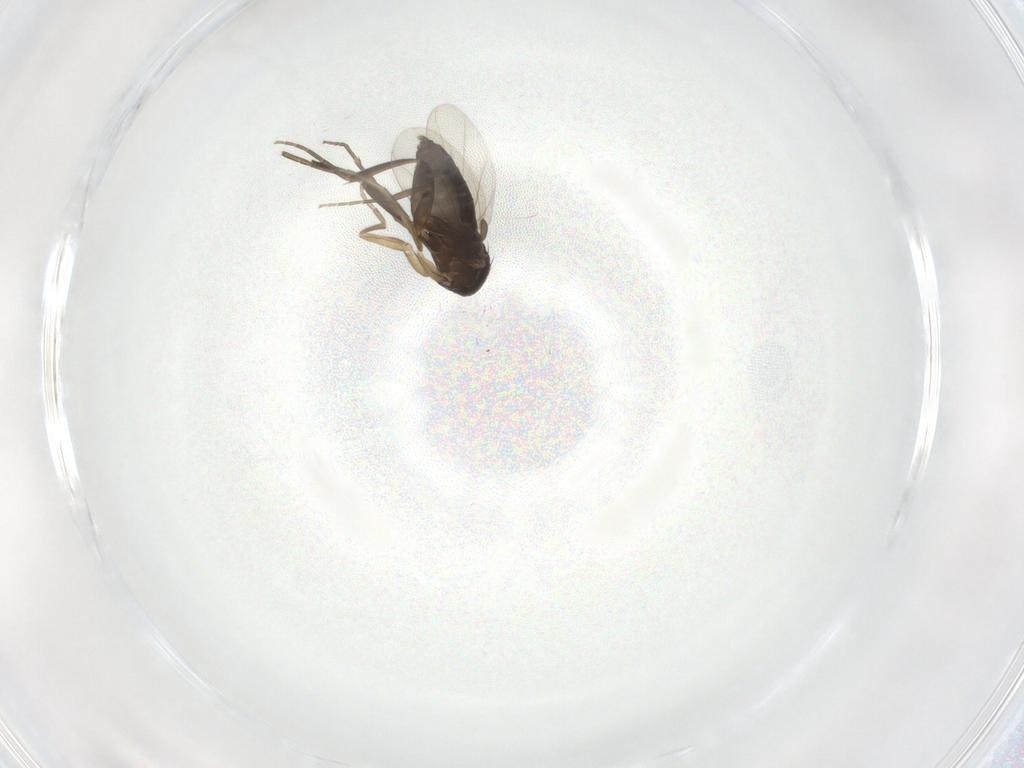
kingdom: Animalia
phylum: Arthropoda
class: Insecta
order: Diptera
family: Phoridae
